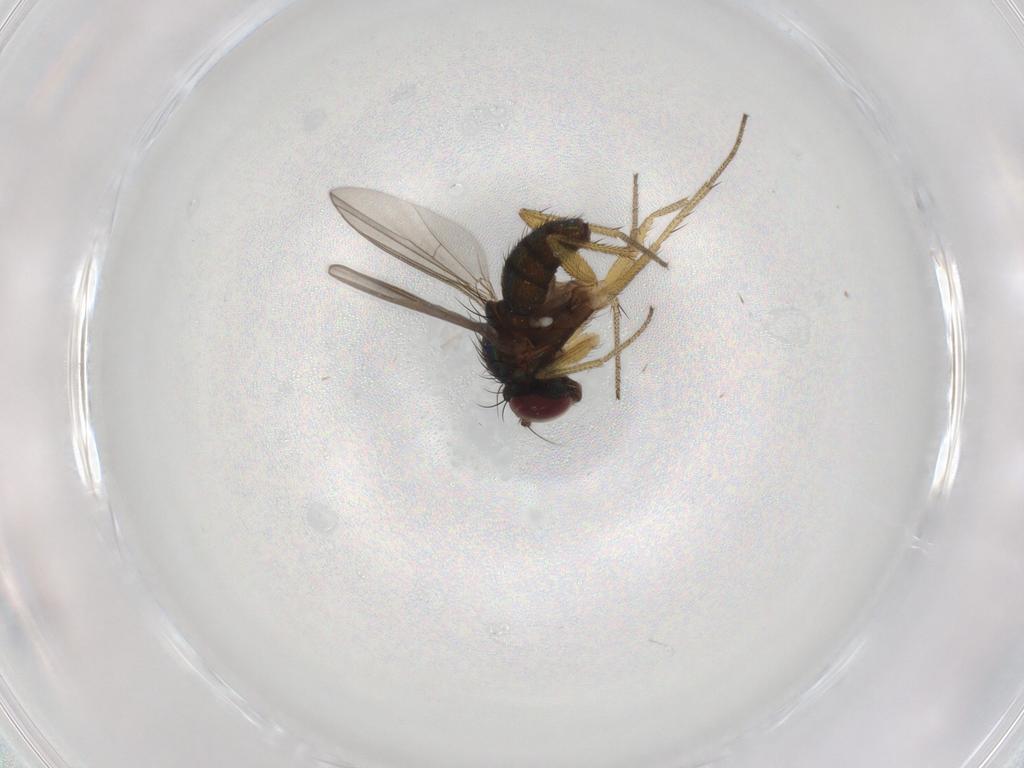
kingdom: Animalia
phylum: Arthropoda
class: Insecta
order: Diptera
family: Dolichopodidae
